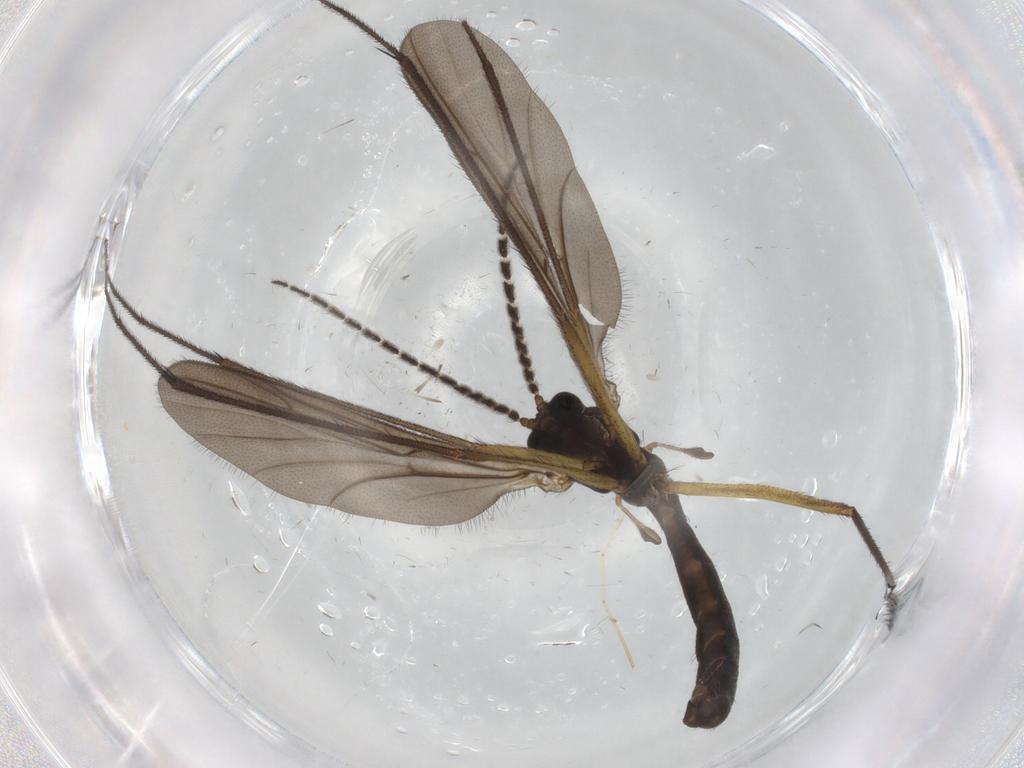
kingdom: Animalia
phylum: Arthropoda
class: Insecta
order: Diptera
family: Ditomyiidae
